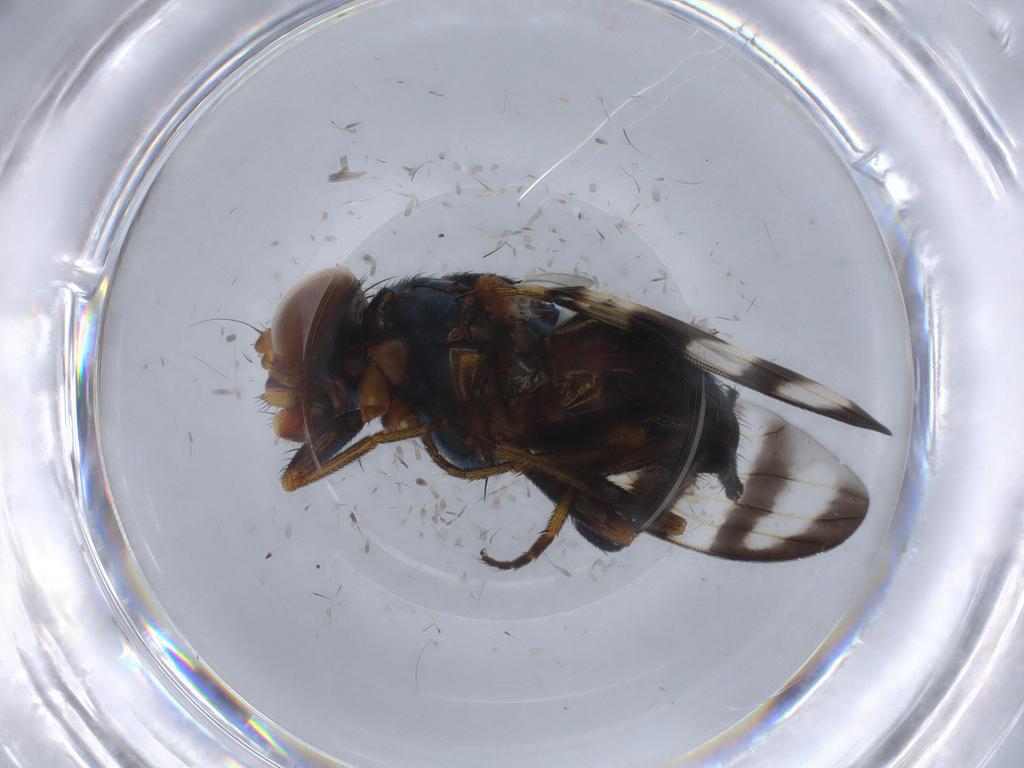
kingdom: Animalia
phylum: Arthropoda
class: Insecta
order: Diptera
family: Ulidiidae
